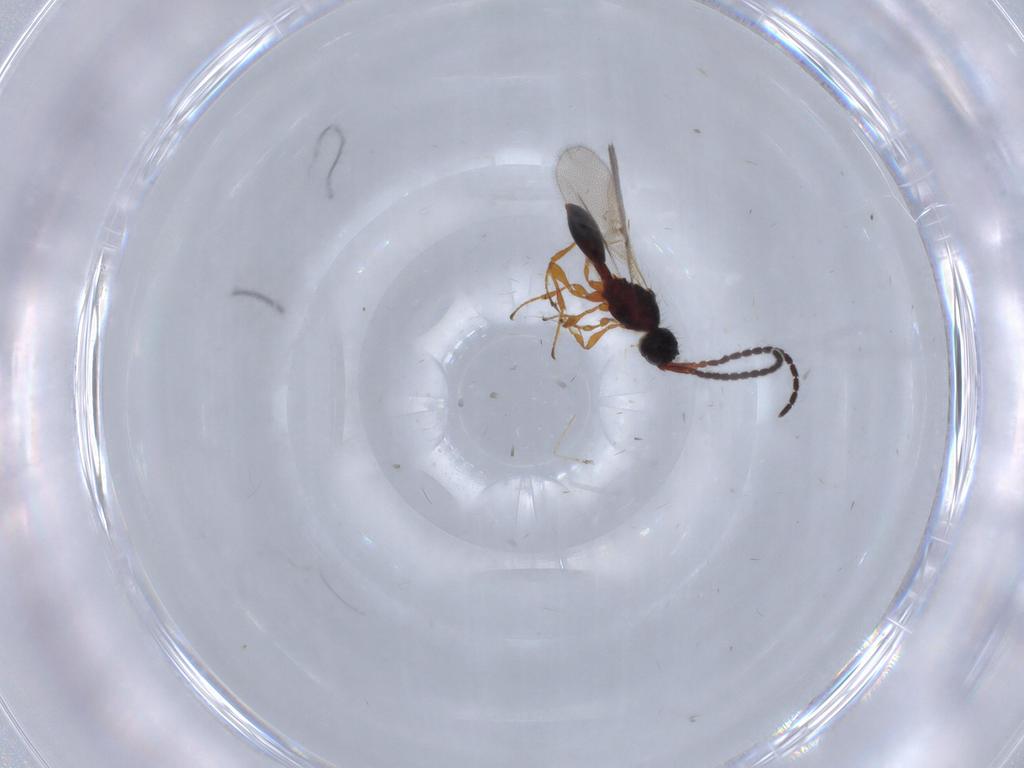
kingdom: Animalia
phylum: Arthropoda
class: Insecta
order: Hymenoptera
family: Diapriidae
